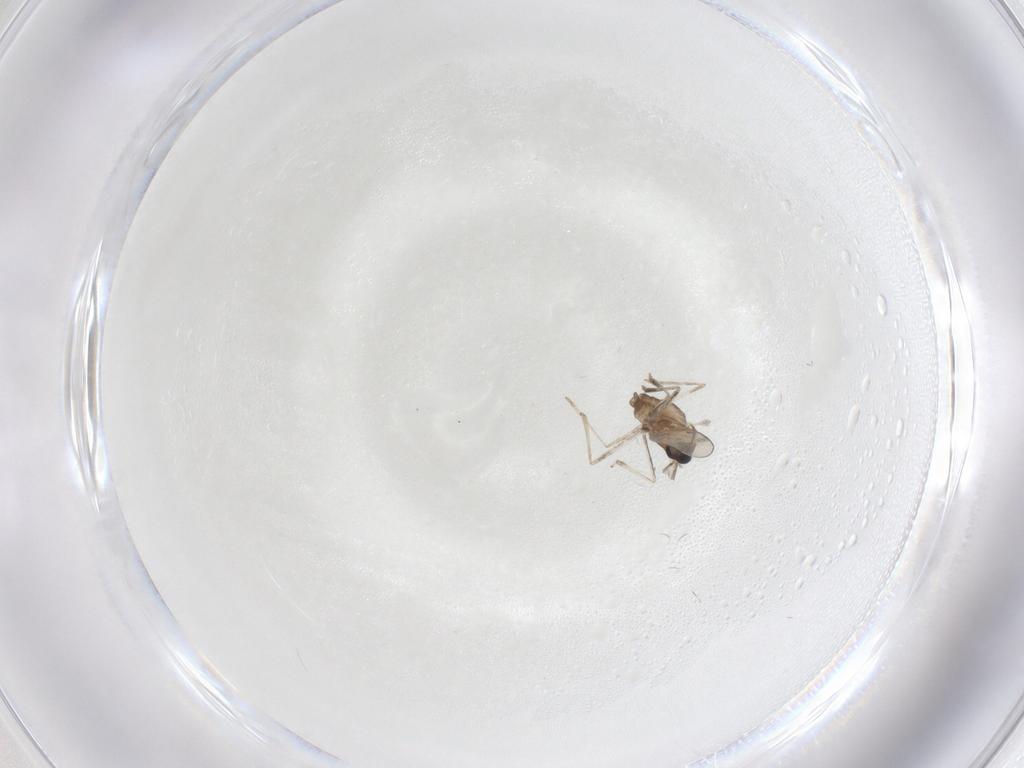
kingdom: Animalia
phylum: Arthropoda
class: Insecta
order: Diptera
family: Cecidomyiidae
